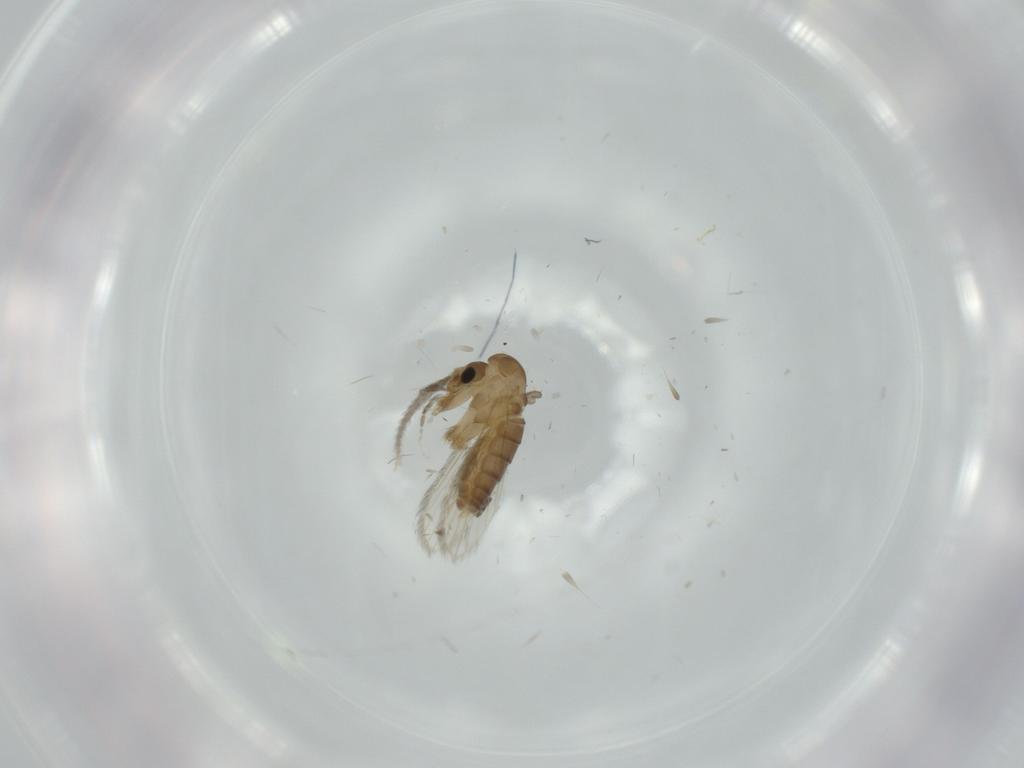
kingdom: Animalia
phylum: Arthropoda
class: Insecta
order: Diptera
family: Psychodidae
